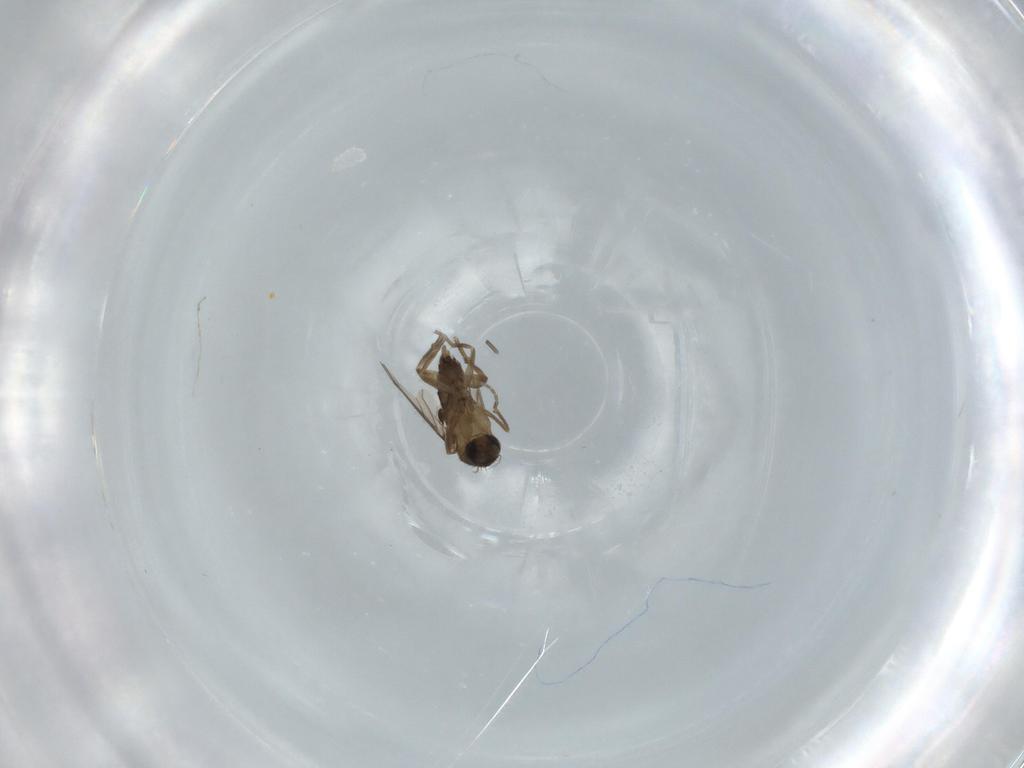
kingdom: Animalia
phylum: Arthropoda
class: Insecta
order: Diptera
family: Phoridae
